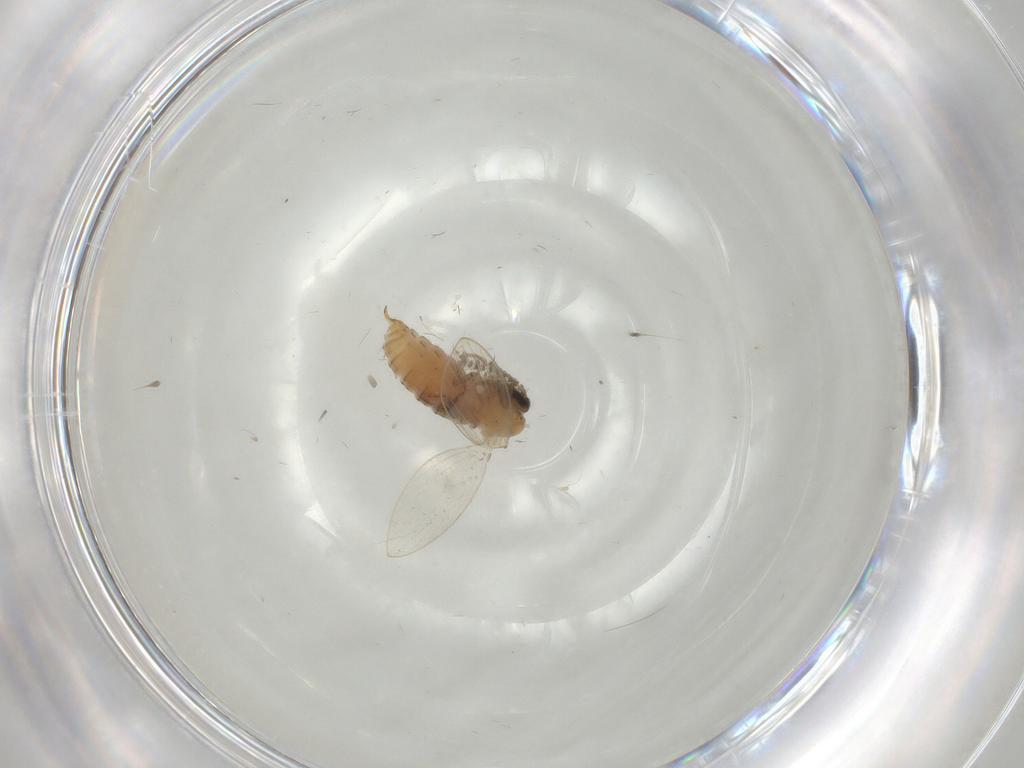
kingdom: Animalia
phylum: Arthropoda
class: Insecta
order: Diptera
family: Psychodidae
